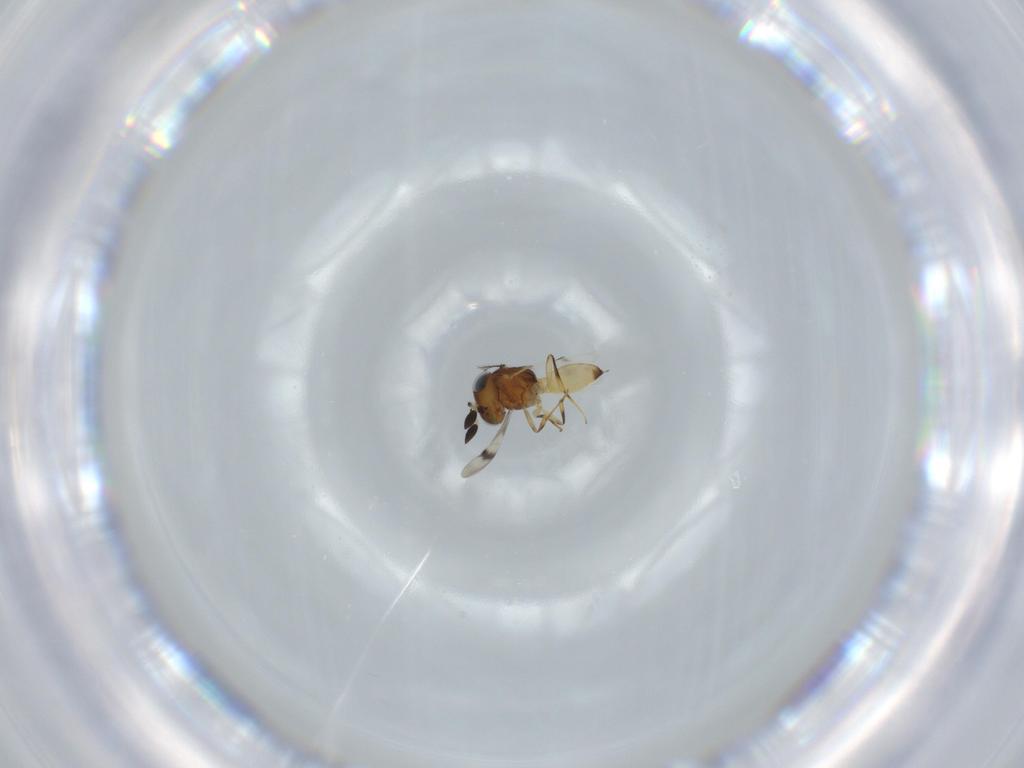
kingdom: Animalia
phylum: Arthropoda
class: Arachnida
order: Araneae
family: Pholcidae
